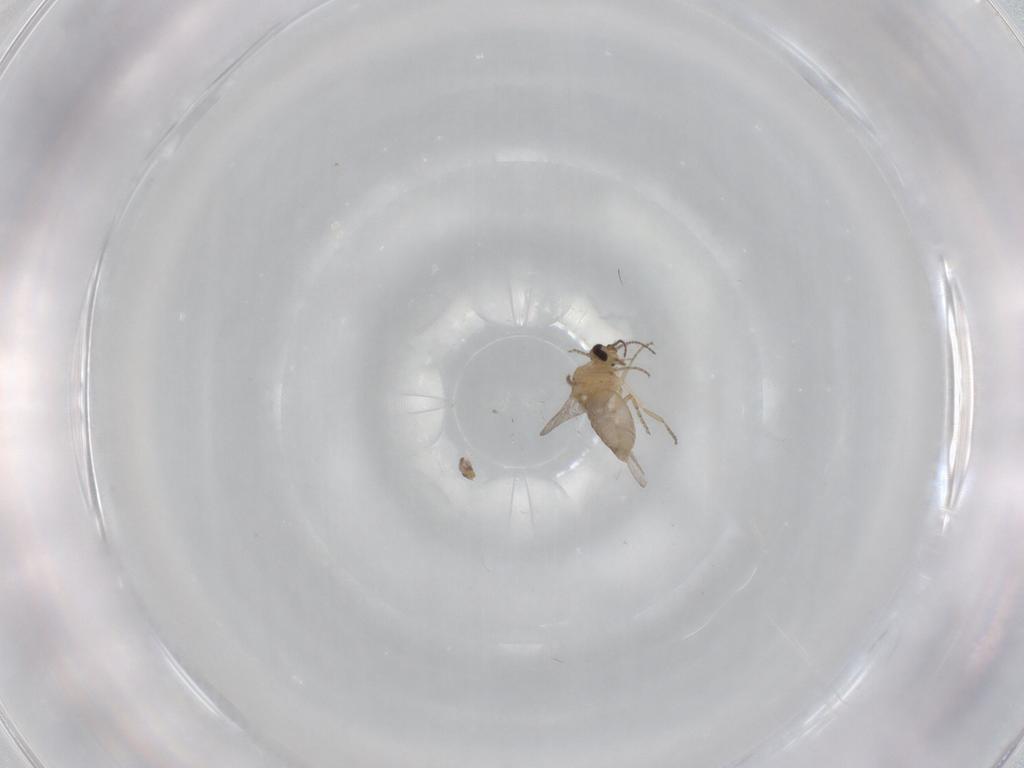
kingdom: Animalia
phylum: Arthropoda
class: Insecta
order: Diptera
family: Ceratopogonidae
